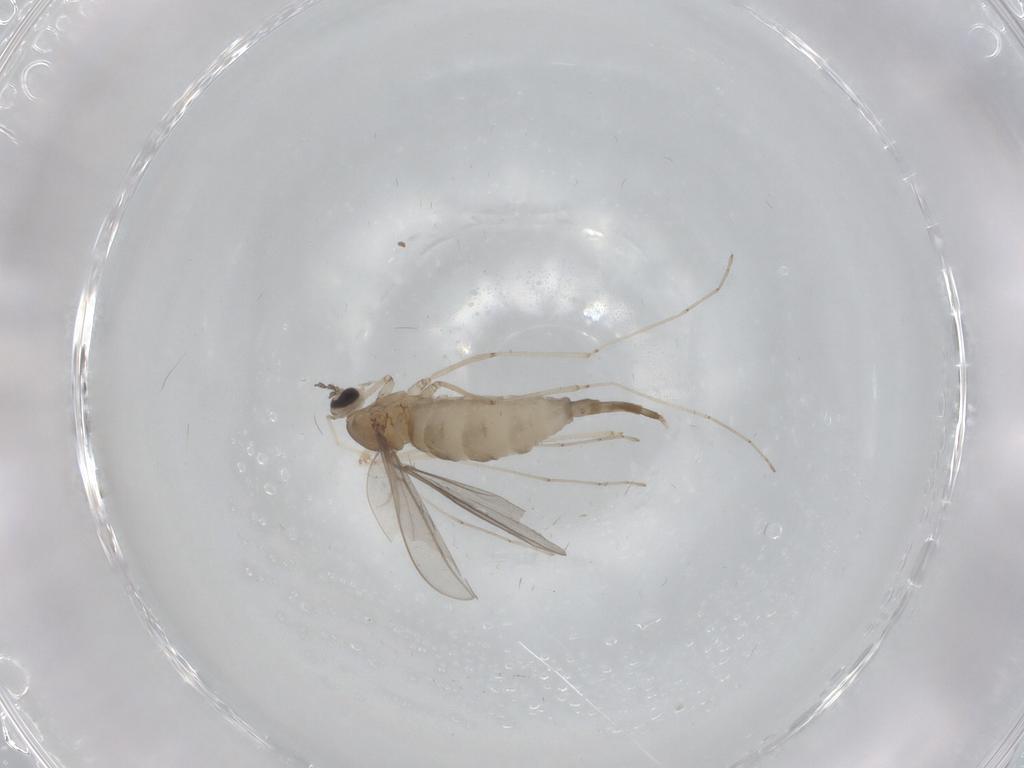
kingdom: Animalia
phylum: Arthropoda
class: Insecta
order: Diptera
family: Cecidomyiidae
